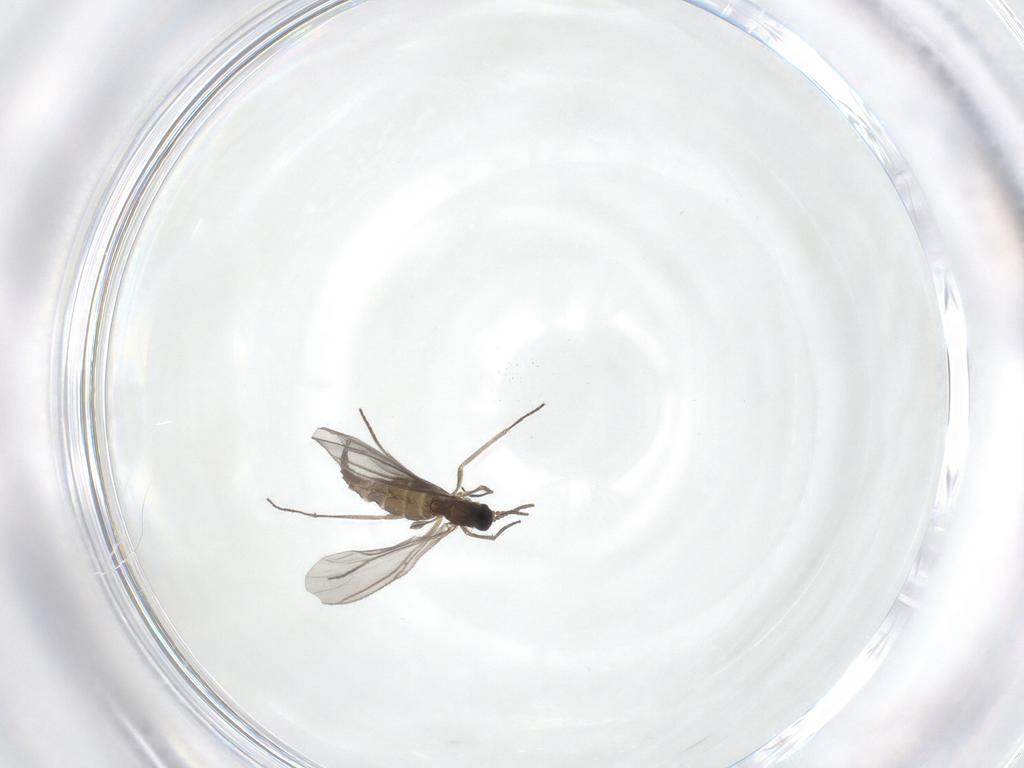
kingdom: Animalia
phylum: Arthropoda
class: Insecta
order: Diptera
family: Sciaridae
